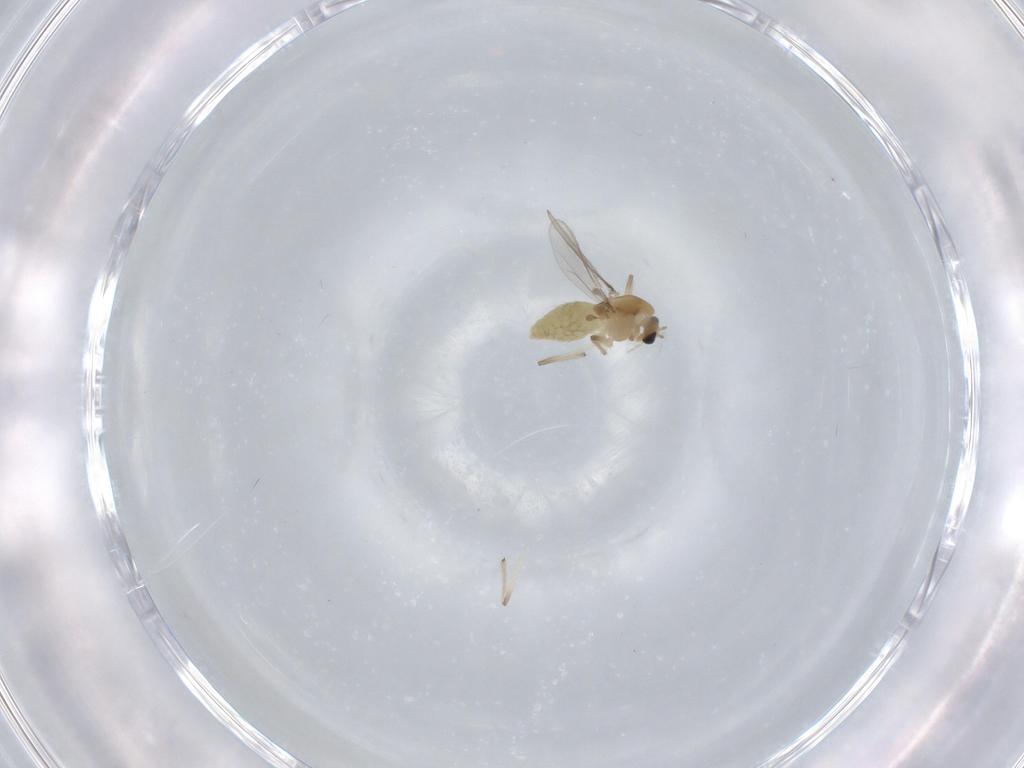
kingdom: Animalia
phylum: Arthropoda
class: Insecta
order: Diptera
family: Chironomidae
